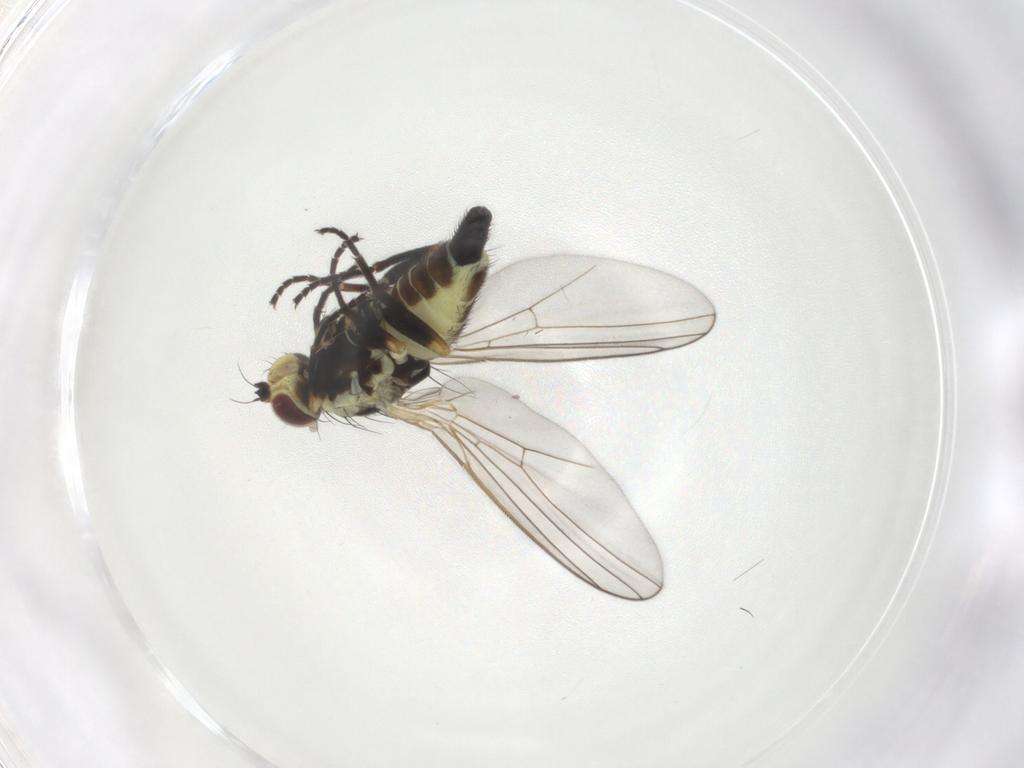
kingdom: Animalia
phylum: Arthropoda
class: Insecta
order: Diptera
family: Agromyzidae
